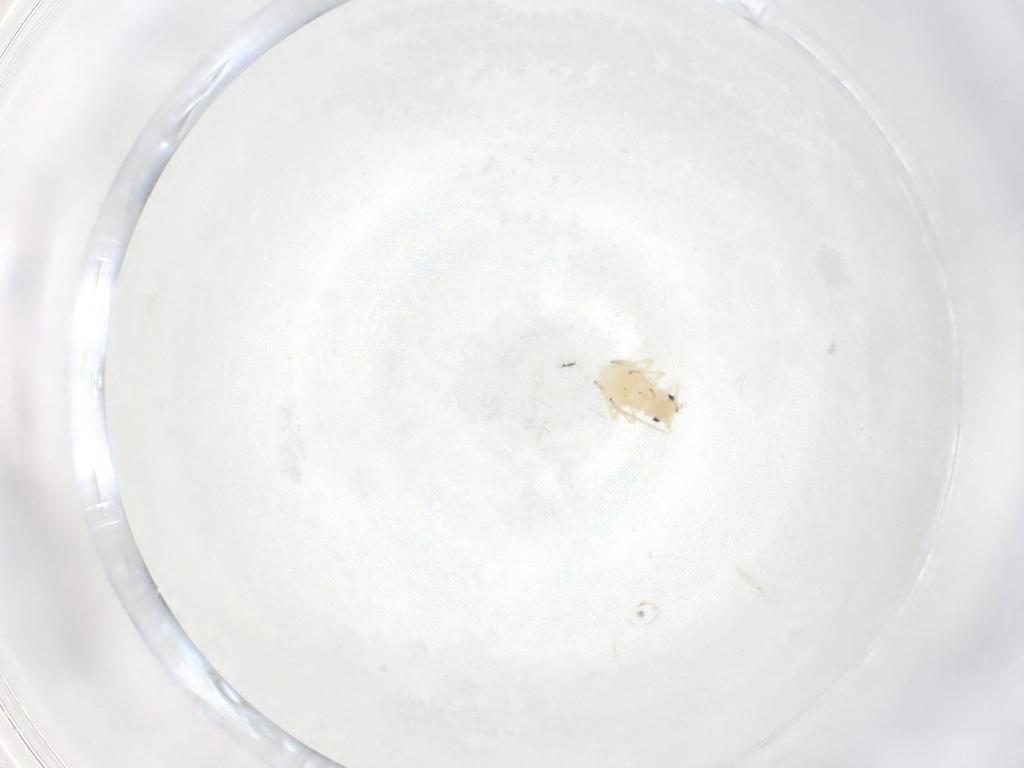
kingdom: Animalia
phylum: Arthropoda
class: Insecta
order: Hemiptera
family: Aphididae
